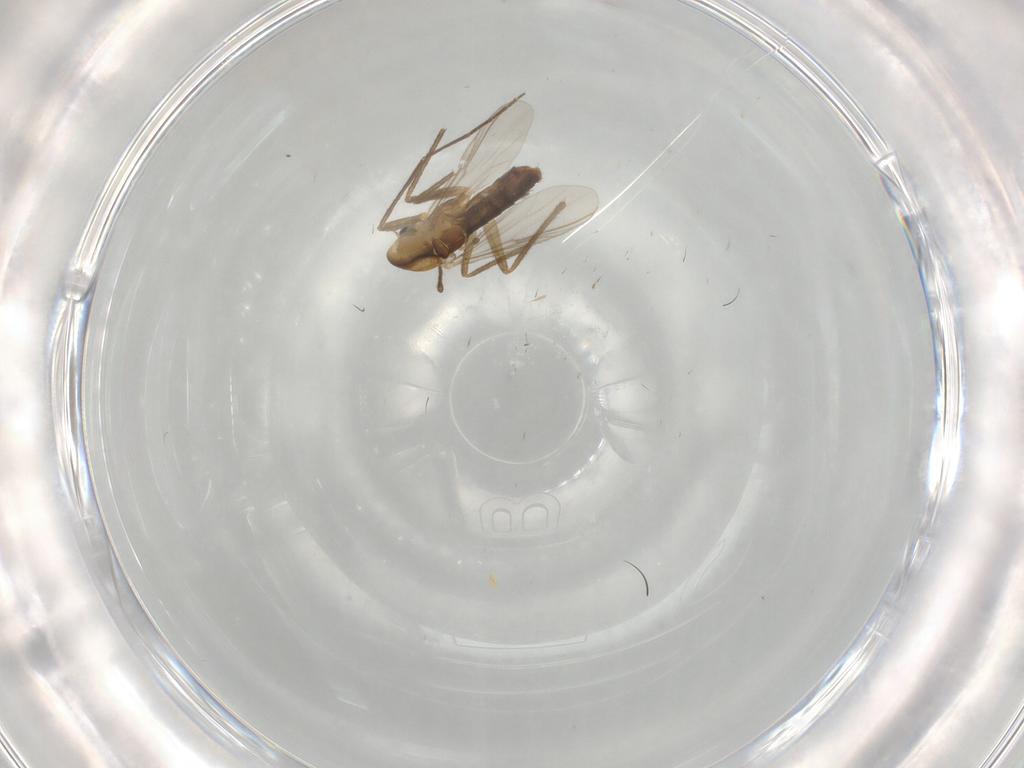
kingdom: Animalia
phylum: Arthropoda
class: Insecta
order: Diptera
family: Chironomidae
